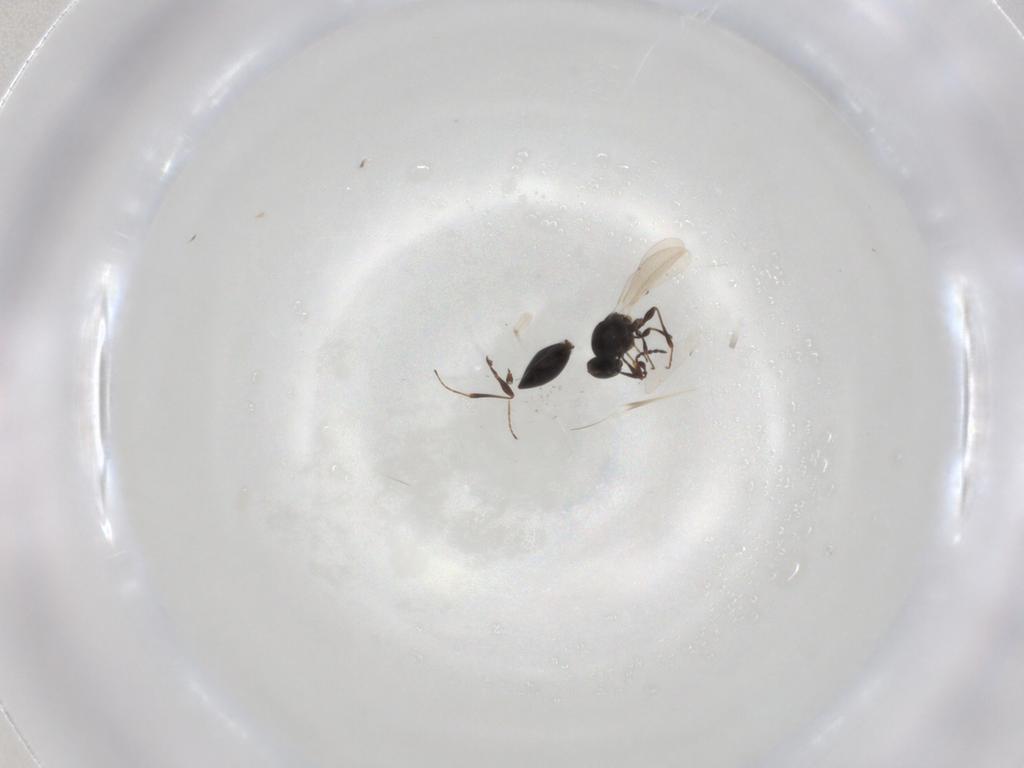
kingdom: Animalia
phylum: Arthropoda
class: Insecta
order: Hymenoptera
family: Platygastridae
